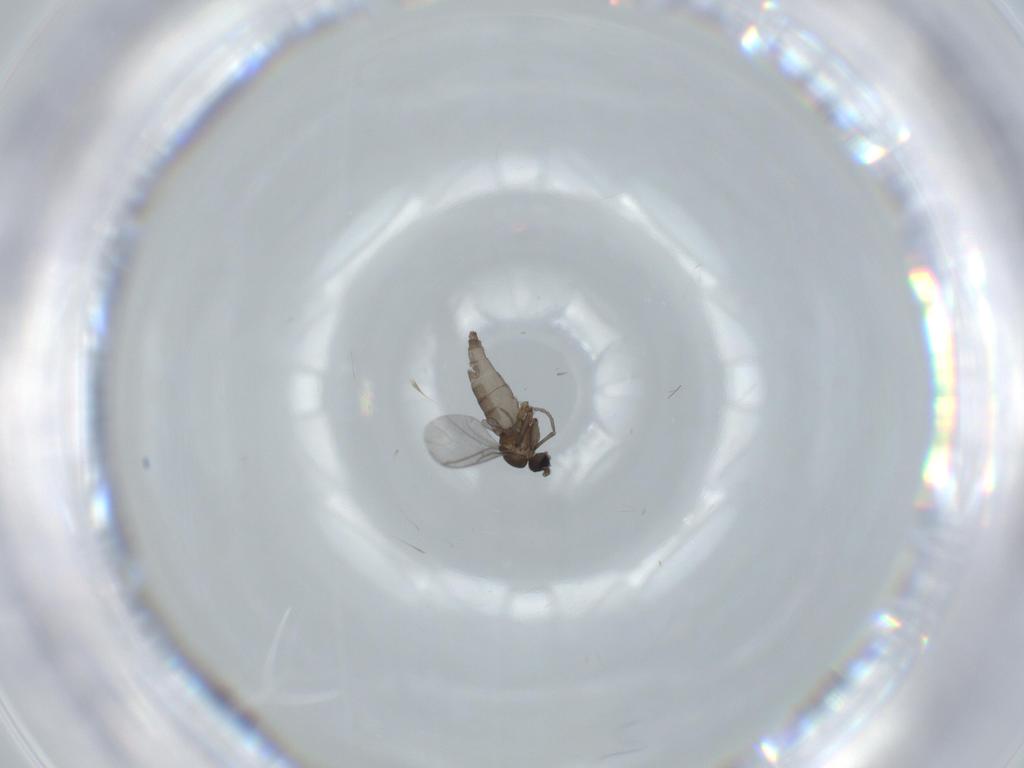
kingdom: Animalia
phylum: Arthropoda
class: Insecta
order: Diptera
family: Sciaridae
